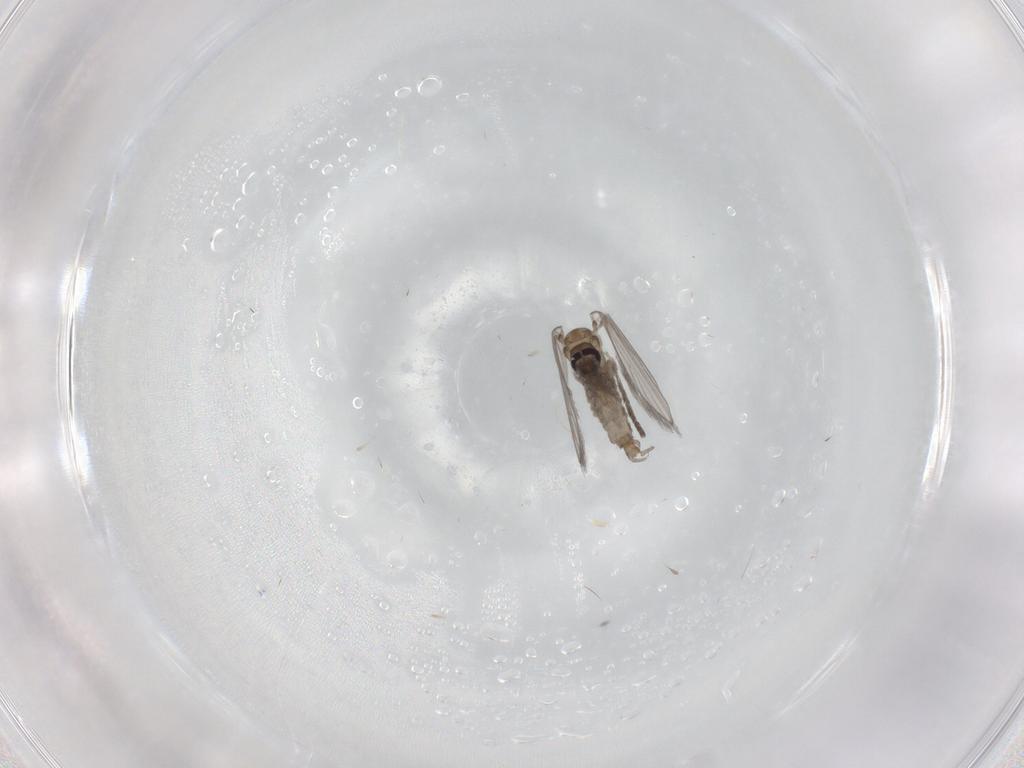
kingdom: Animalia
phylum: Arthropoda
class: Insecta
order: Diptera
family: Psychodidae
